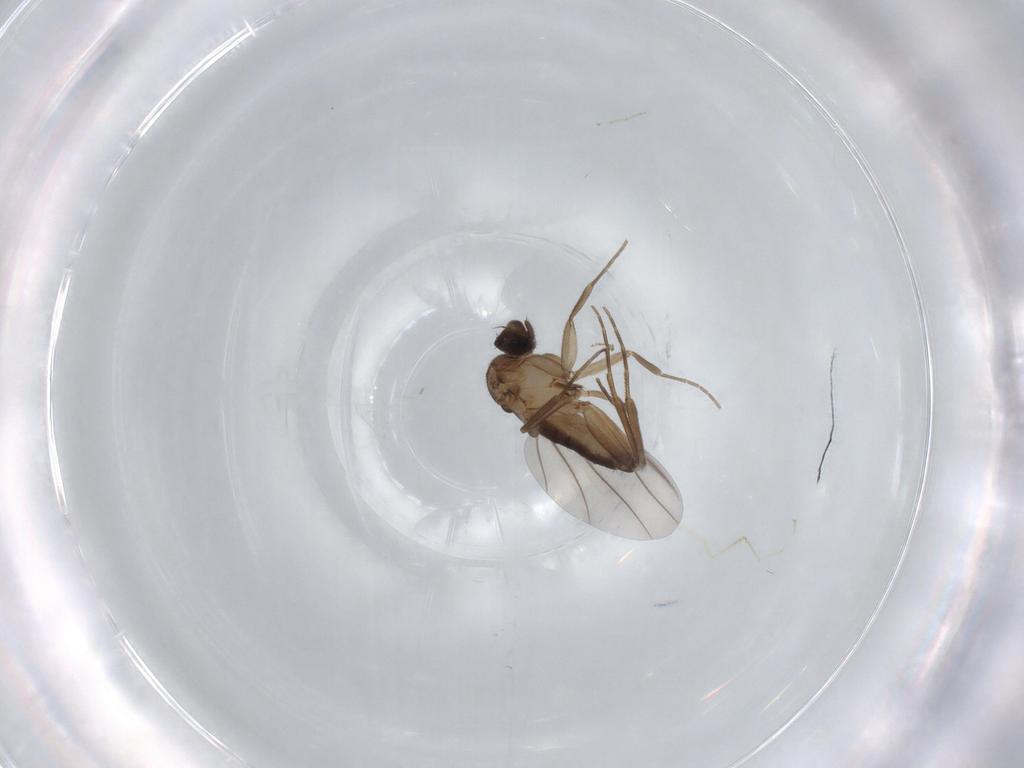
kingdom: Animalia
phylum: Arthropoda
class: Insecta
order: Diptera
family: Phoridae
